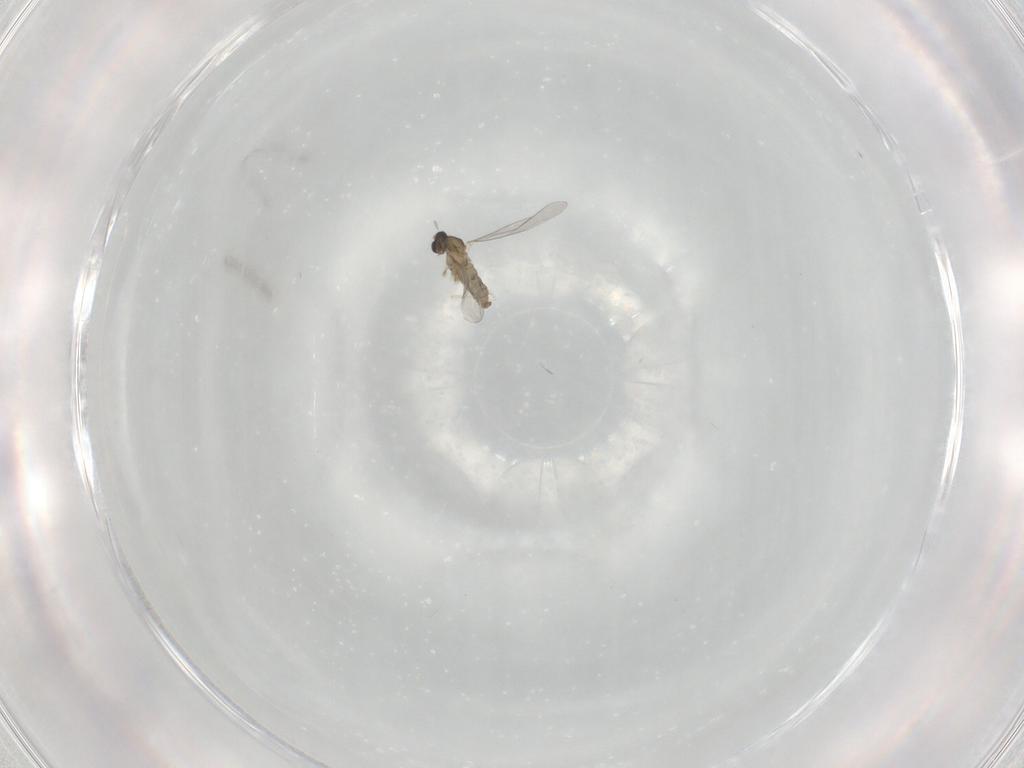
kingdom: Animalia
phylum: Arthropoda
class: Insecta
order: Diptera
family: Cecidomyiidae
